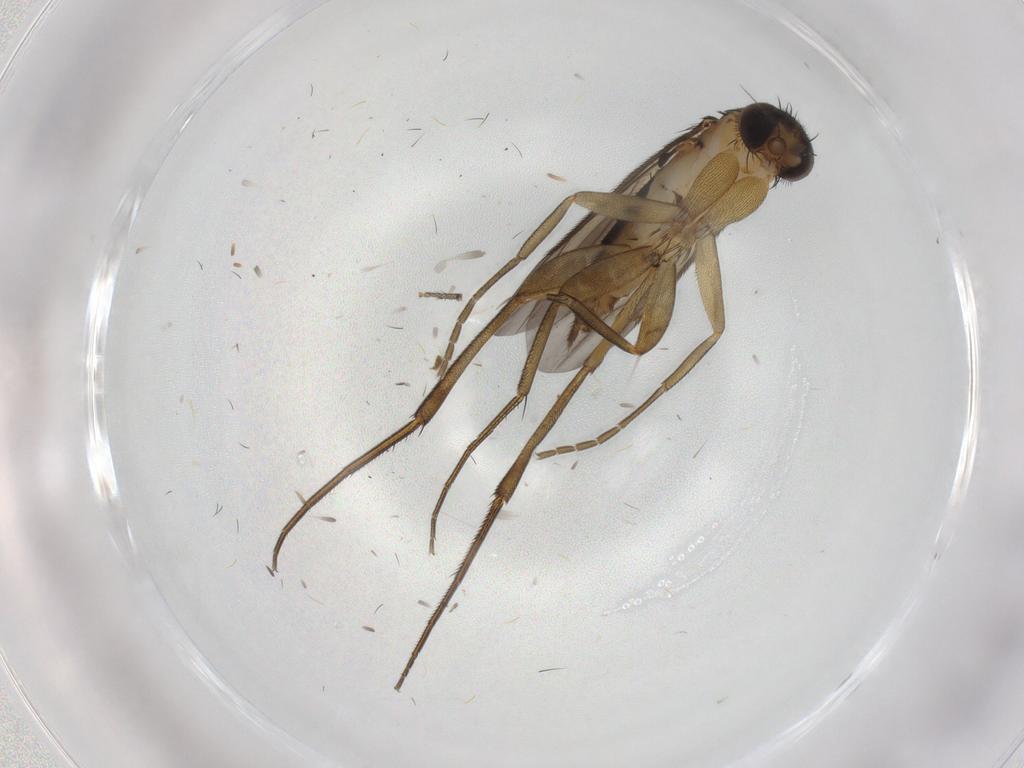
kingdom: Animalia
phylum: Arthropoda
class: Insecta
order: Diptera
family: Phoridae
